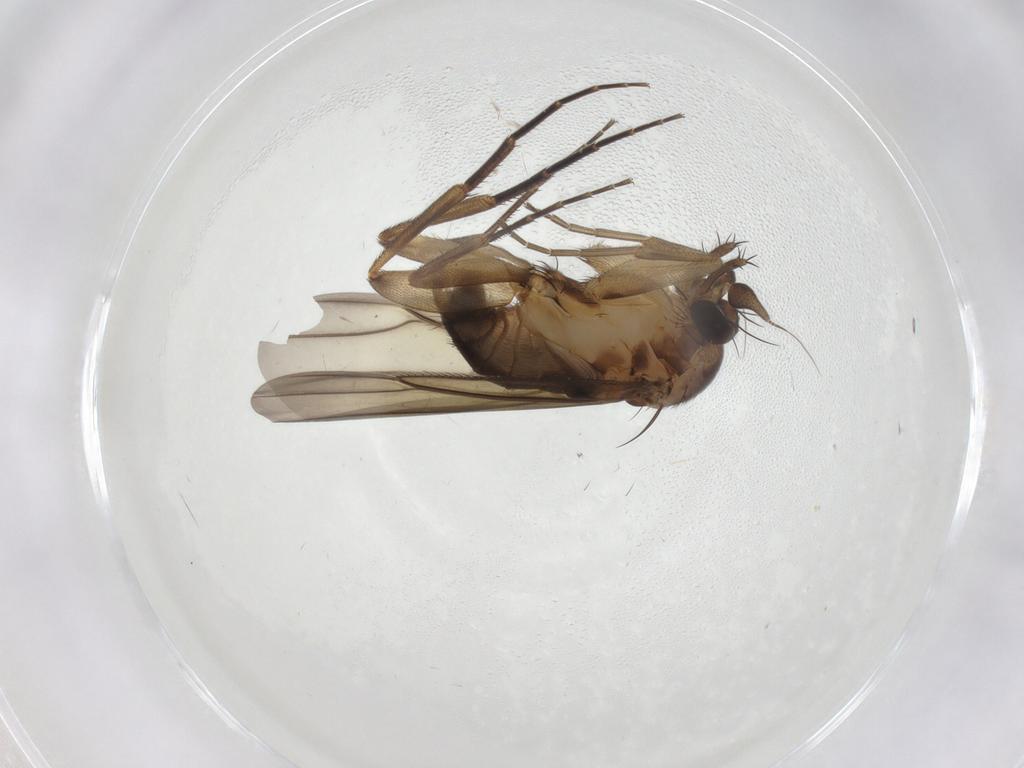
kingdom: Animalia
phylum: Arthropoda
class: Insecta
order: Diptera
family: Phoridae
